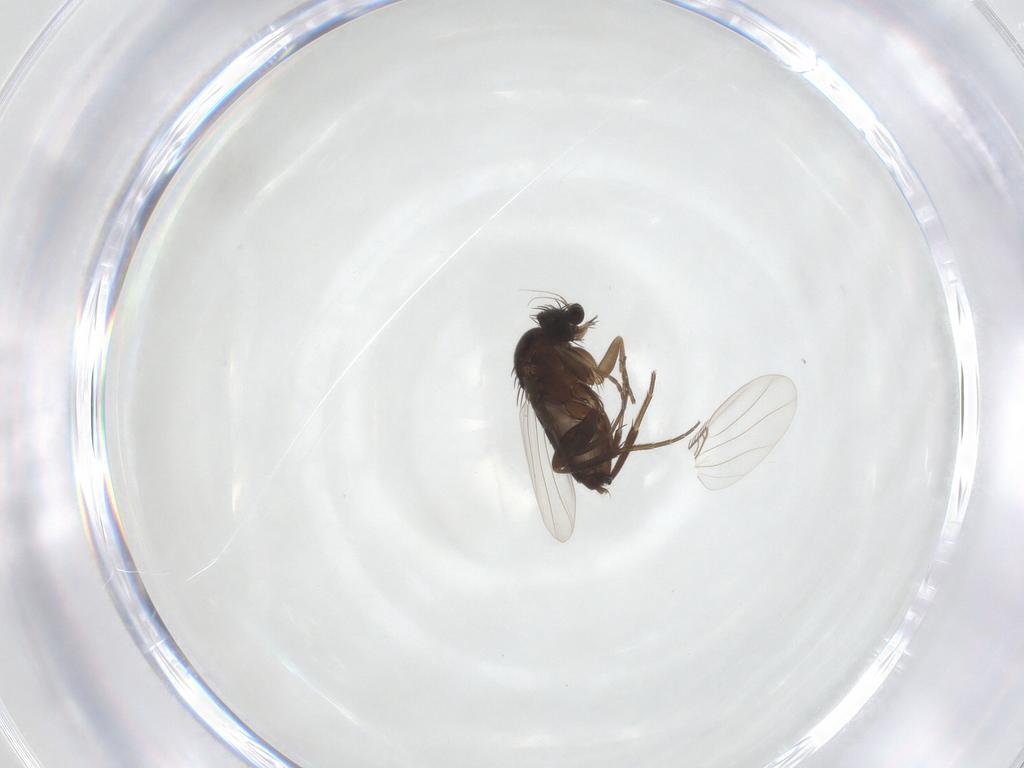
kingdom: Animalia
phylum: Arthropoda
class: Insecta
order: Diptera
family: Phoridae
